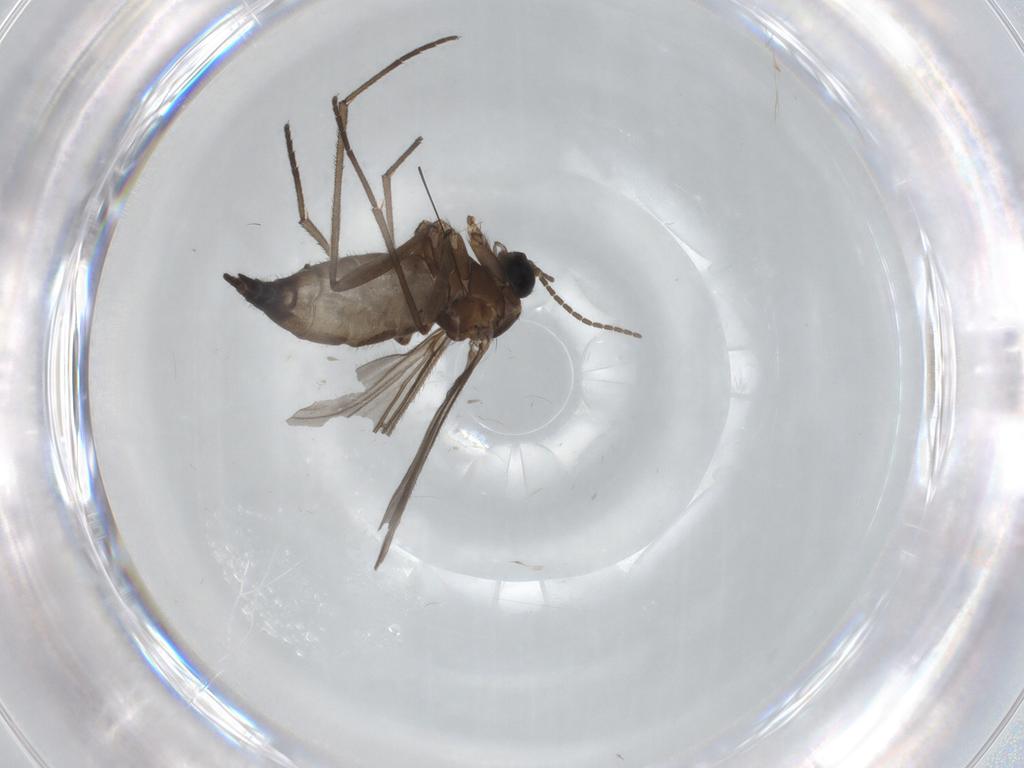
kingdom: Animalia
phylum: Arthropoda
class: Insecta
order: Diptera
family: Sciaridae
